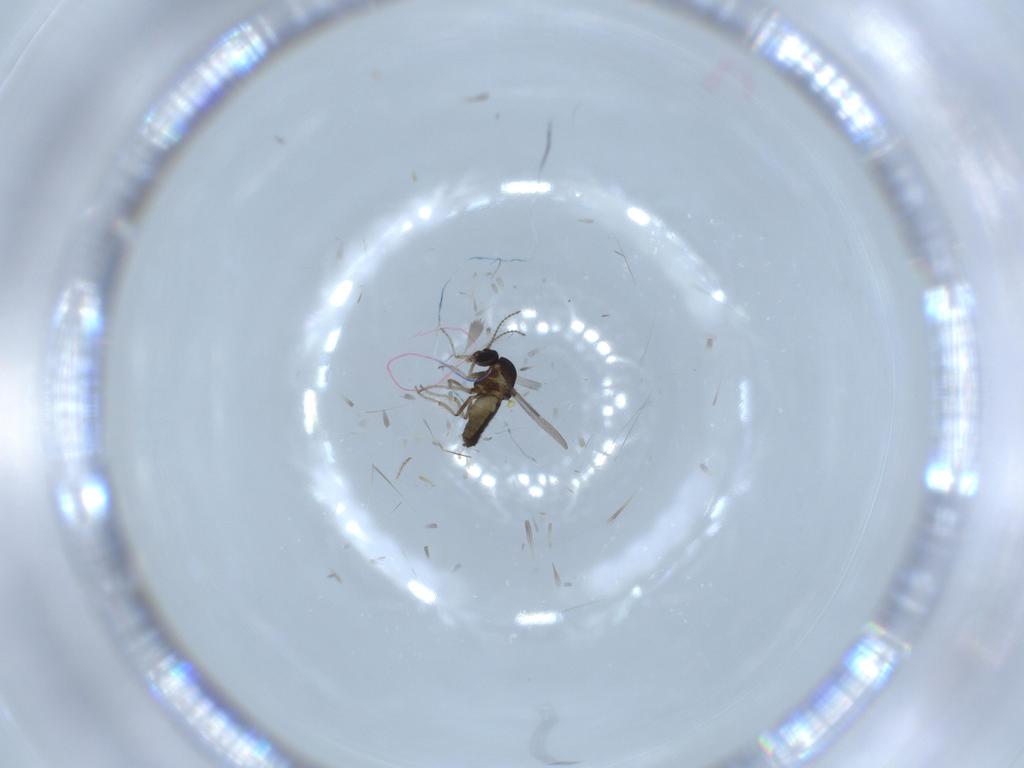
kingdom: Animalia
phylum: Arthropoda
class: Insecta
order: Diptera
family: Ceratopogonidae
